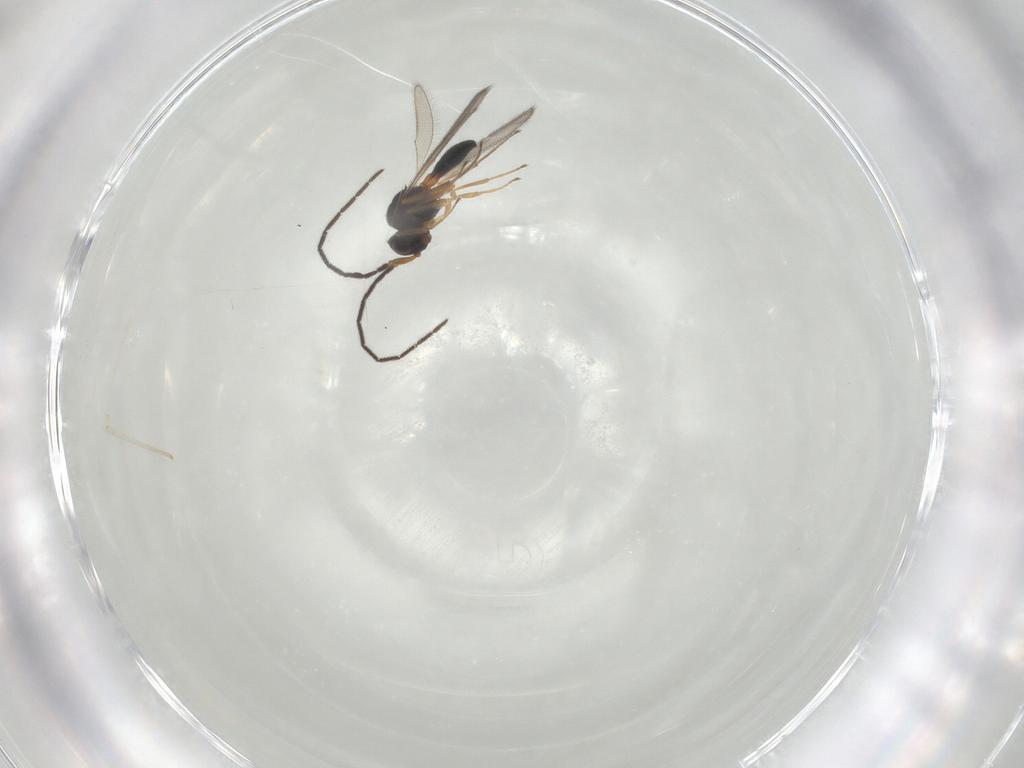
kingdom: Animalia
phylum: Arthropoda
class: Insecta
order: Hymenoptera
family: Scelionidae
